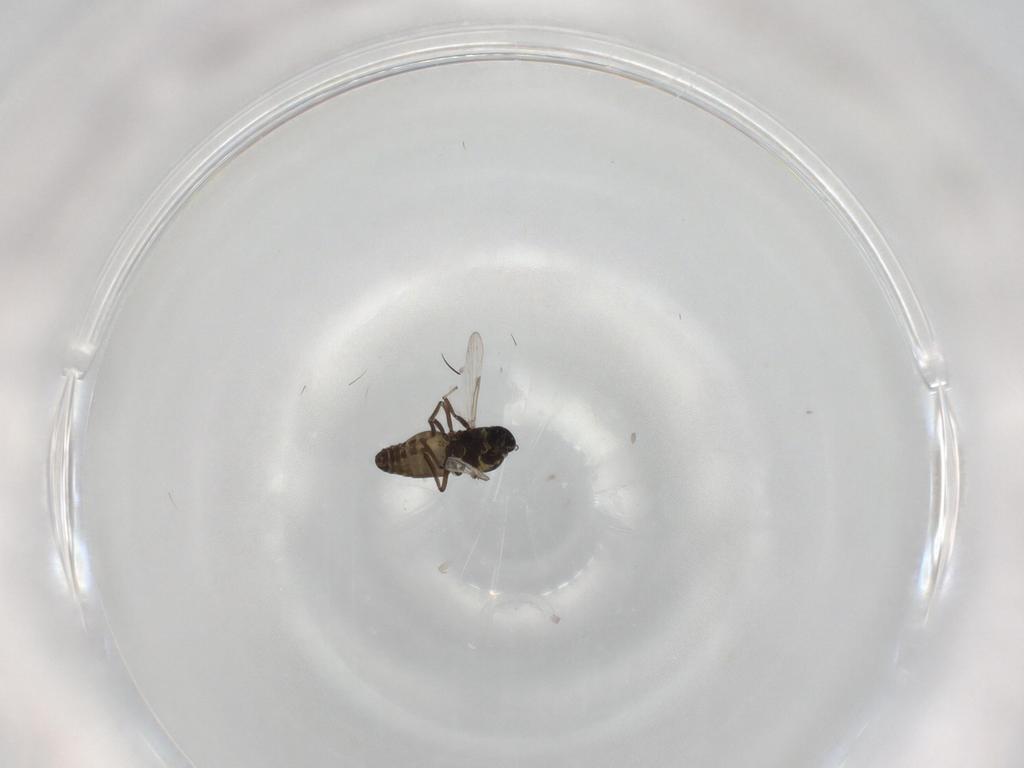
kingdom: Animalia
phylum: Arthropoda
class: Insecta
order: Diptera
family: Ceratopogonidae
